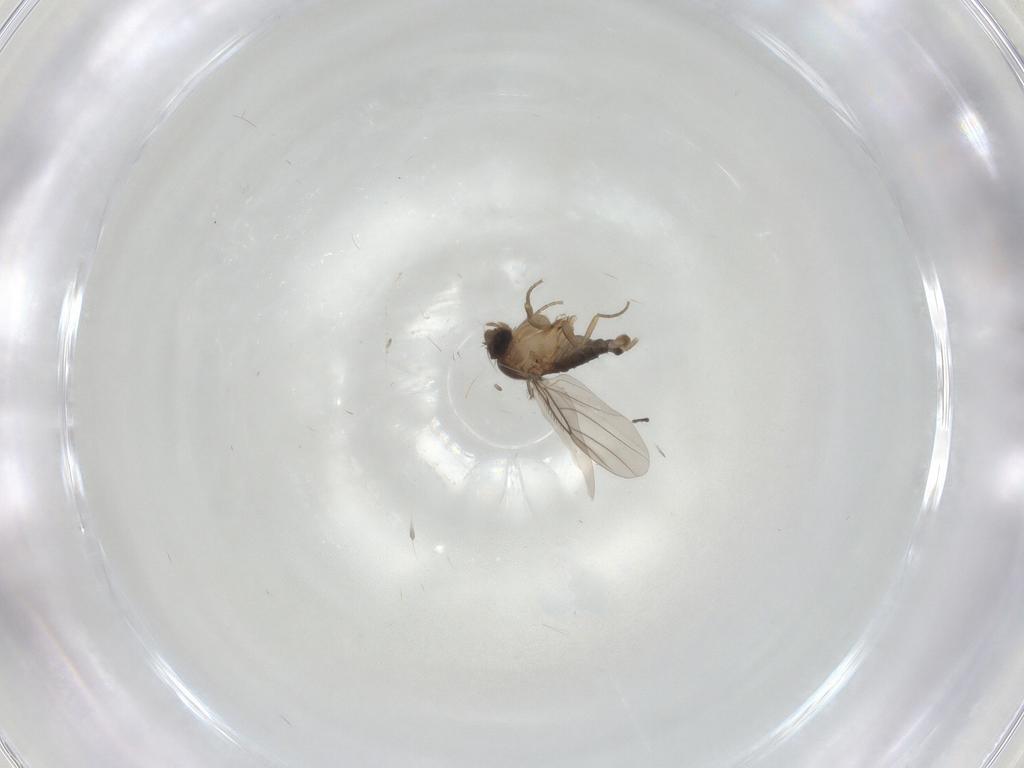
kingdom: Animalia
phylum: Arthropoda
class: Insecta
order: Diptera
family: Phoridae
